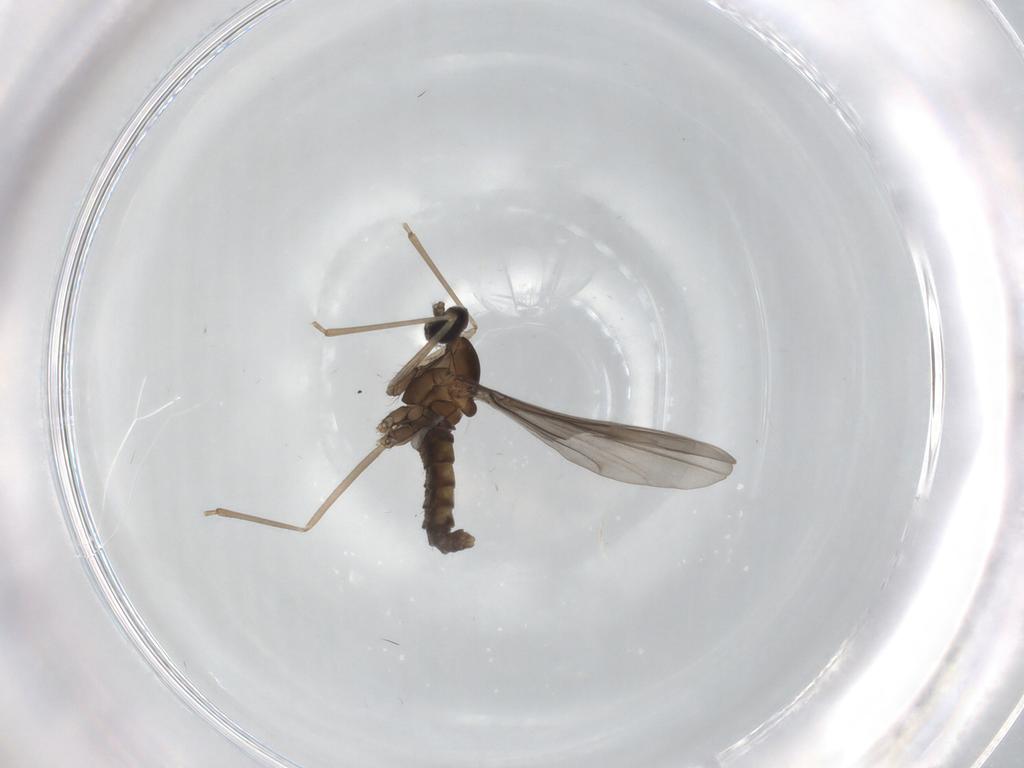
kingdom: Animalia
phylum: Arthropoda
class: Insecta
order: Diptera
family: Cecidomyiidae
